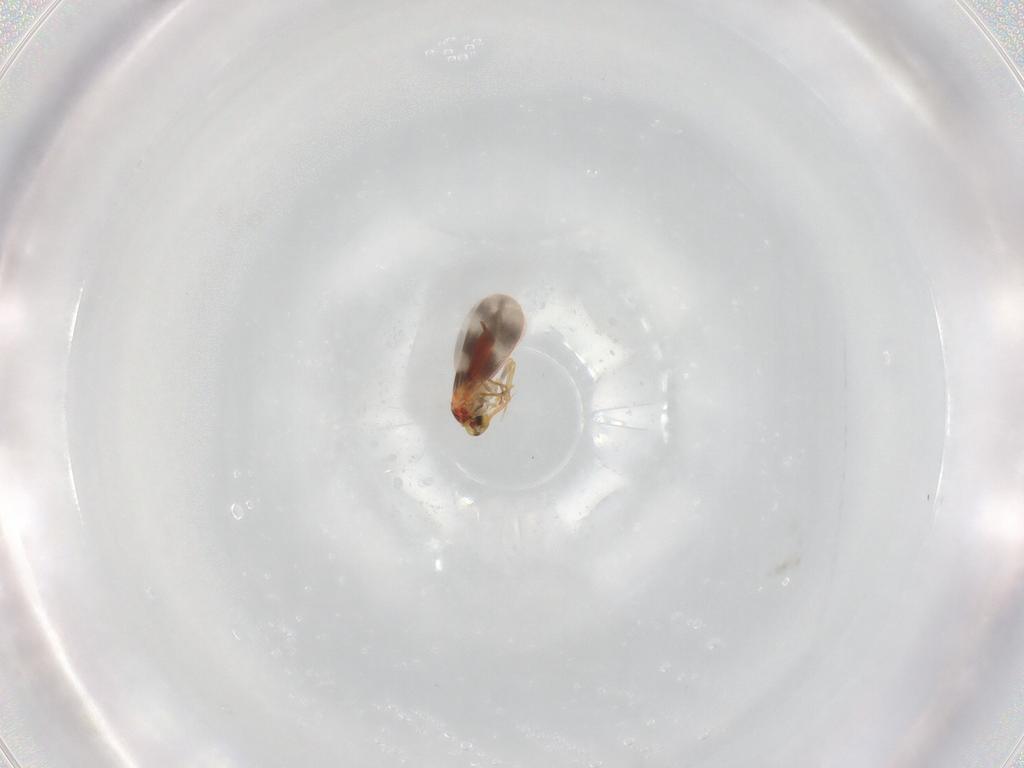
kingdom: Animalia
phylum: Arthropoda
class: Insecta
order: Hemiptera
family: Aleyrodidae
